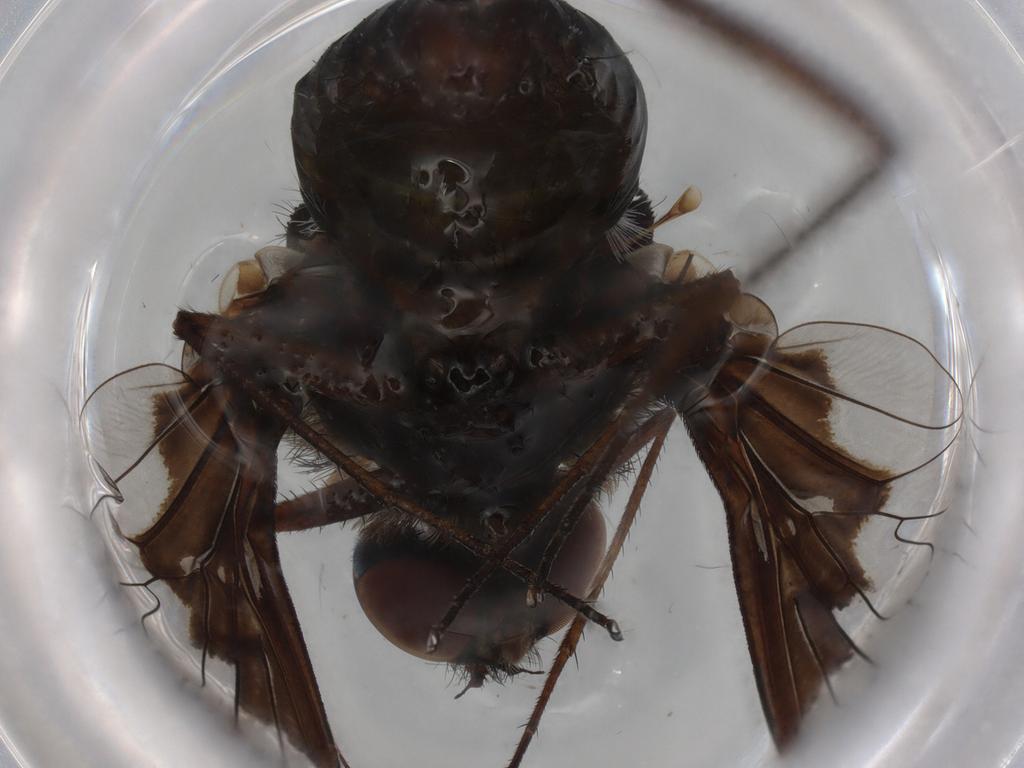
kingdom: Animalia
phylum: Arthropoda
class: Insecta
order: Diptera
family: Bombyliidae
